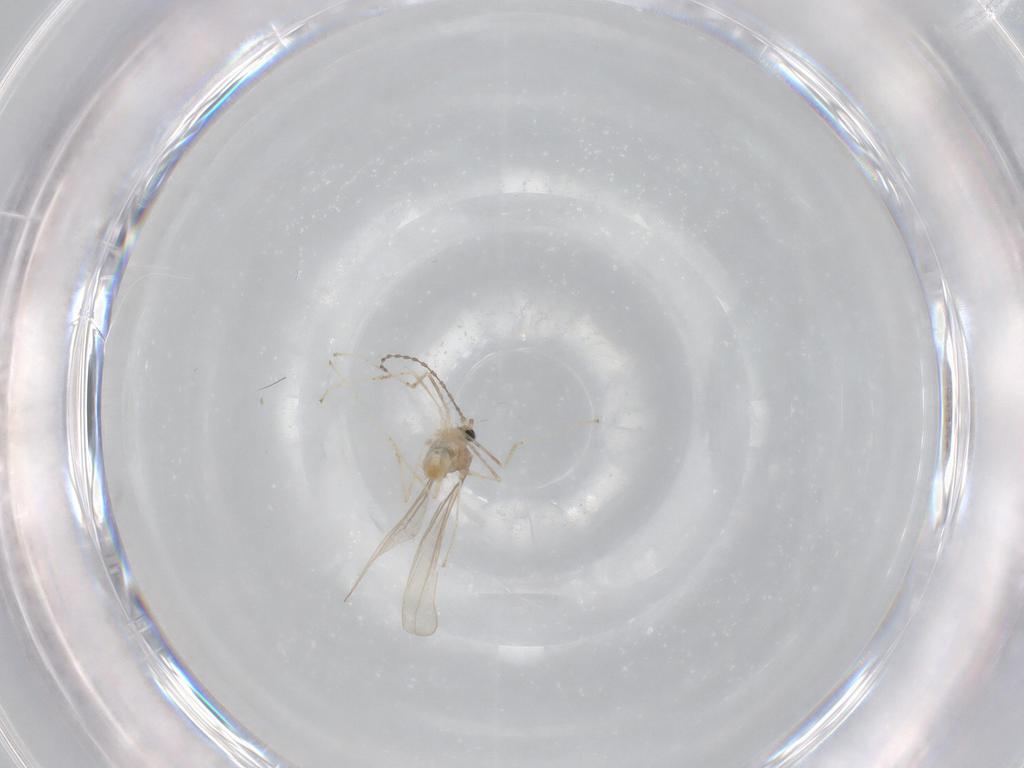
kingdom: Animalia
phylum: Arthropoda
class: Insecta
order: Diptera
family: Cecidomyiidae
